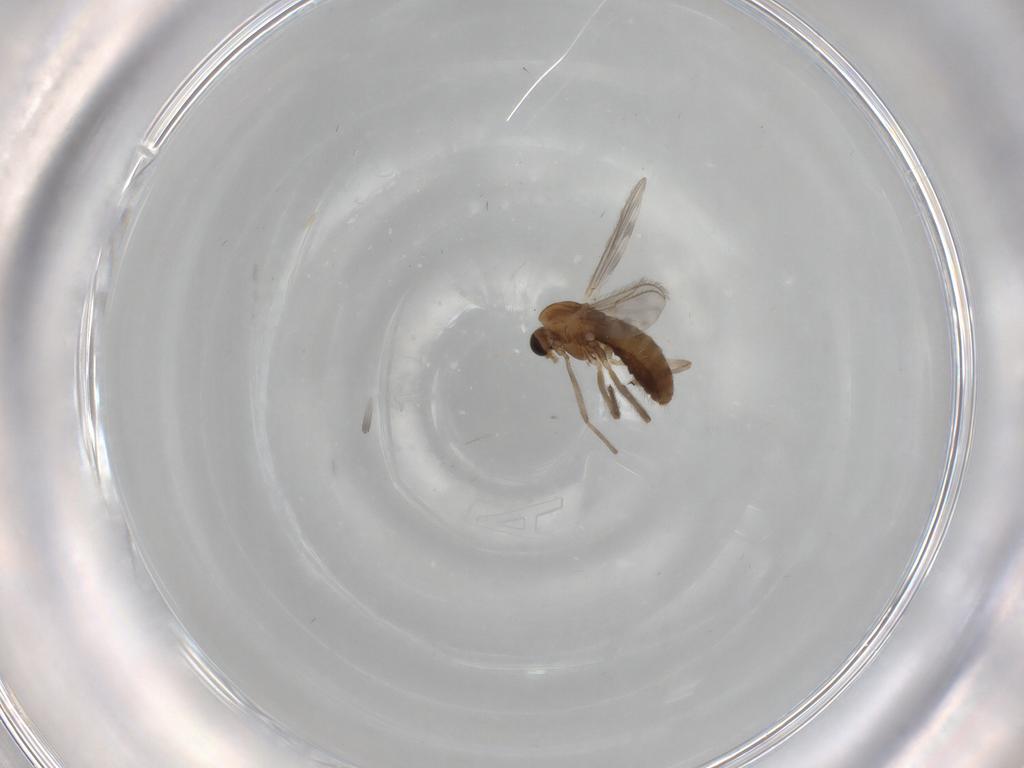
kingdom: Animalia
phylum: Arthropoda
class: Insecta
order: Diptera
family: Chironomidae
